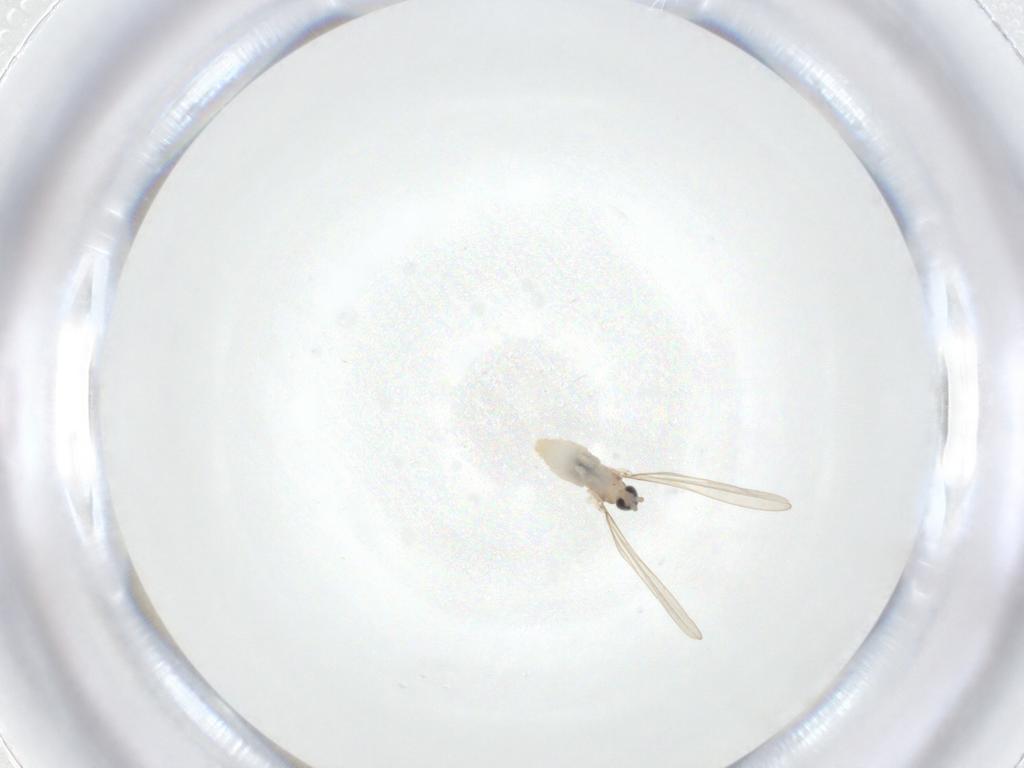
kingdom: Animalia
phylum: Arthropoda
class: Insecta
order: Diptera
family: Cecidomyiidae
